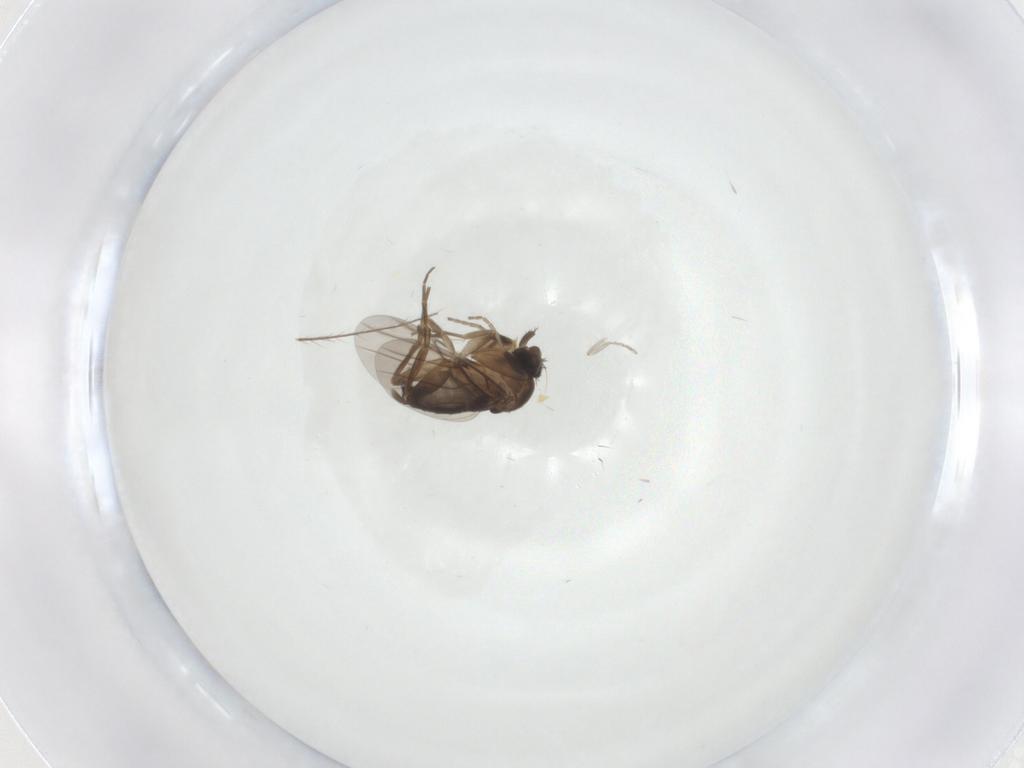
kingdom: Animalia
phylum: Arthropoda
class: Insecta
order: Diptera
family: Phoridae
